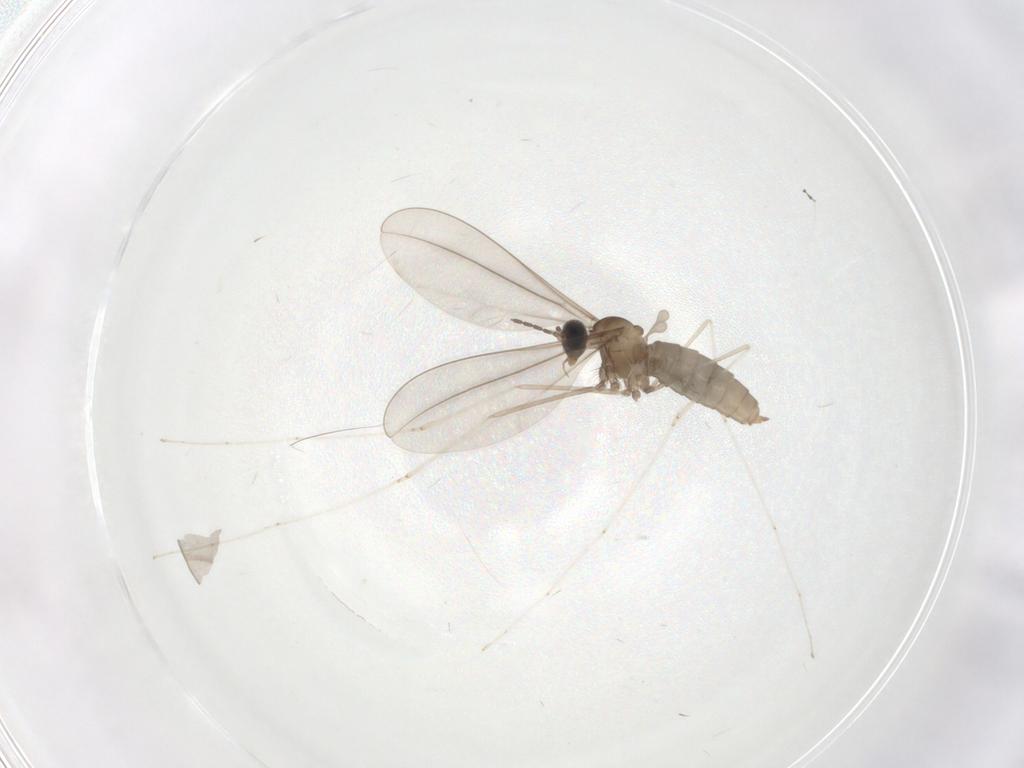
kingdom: Animalia
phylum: Arthropoda
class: Insecta
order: Diptera
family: Cecidomyiidae
